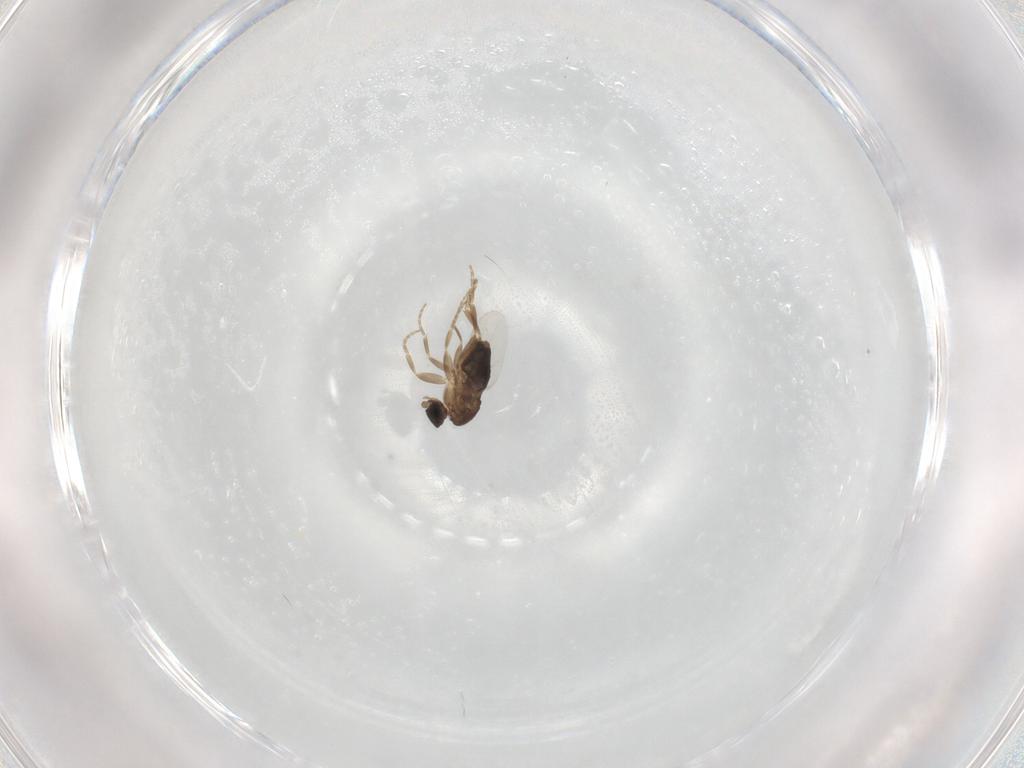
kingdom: Animalia
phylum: Arthropoda
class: Insecta
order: Diptera
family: Phoridae
